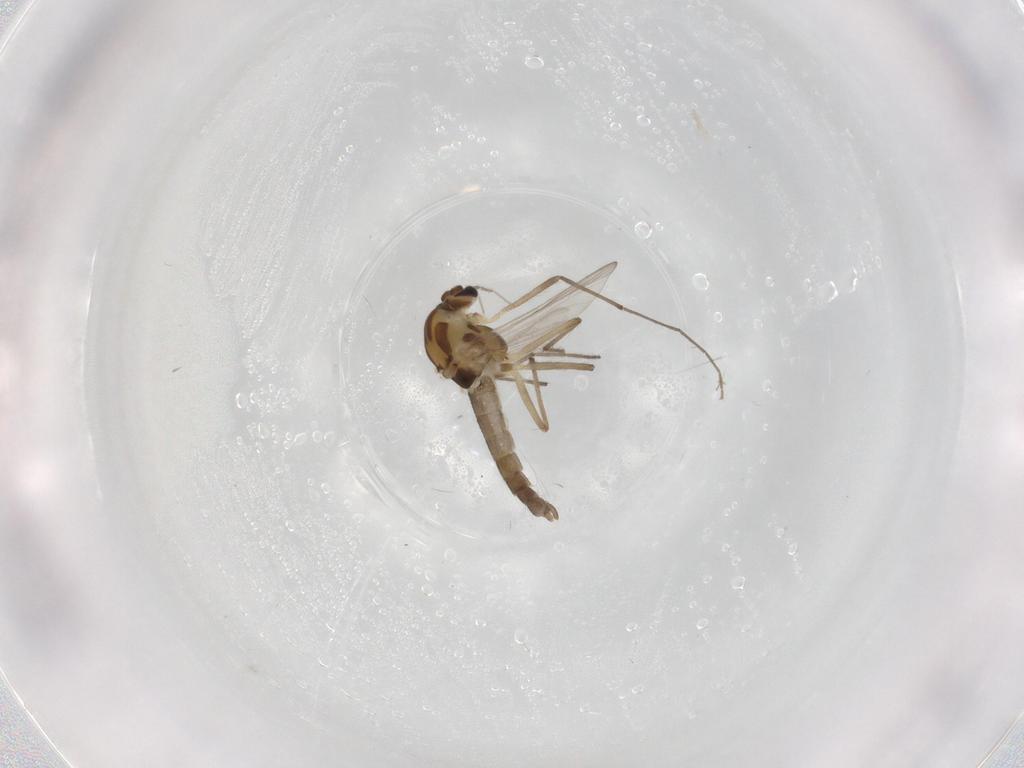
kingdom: Animalia
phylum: Arthropoda
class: Insecta
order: Diptera
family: Chironomidae
